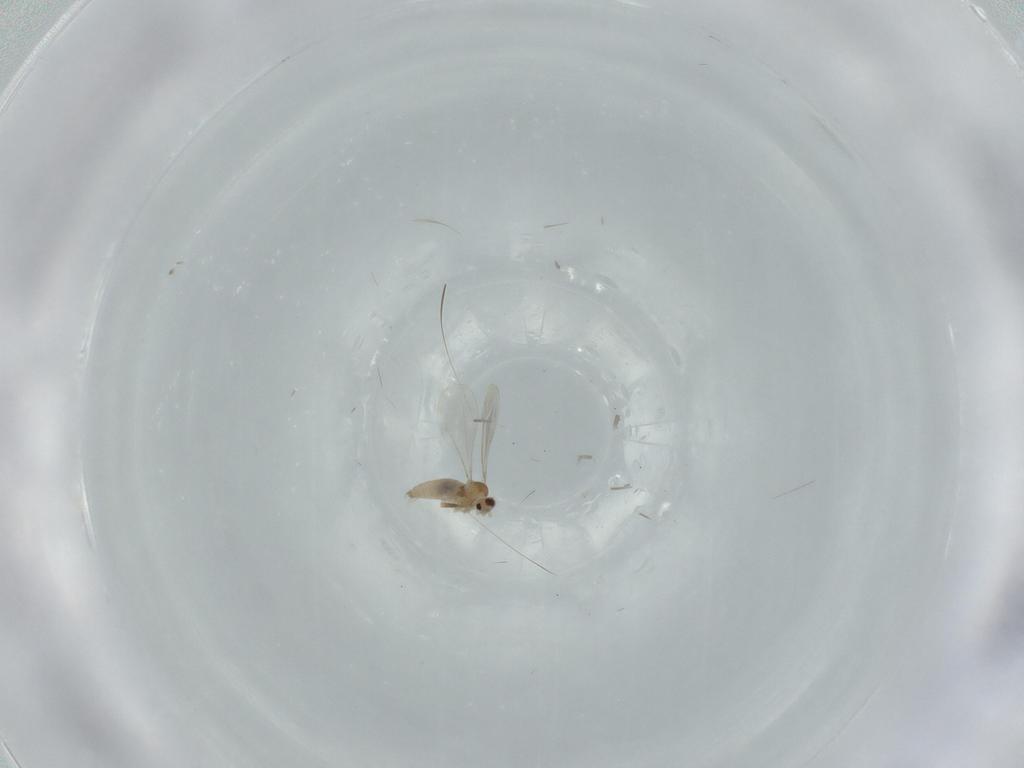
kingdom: Animalia
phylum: Arthropoda
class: Insecta
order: Diptera
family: Cecidomyiidae
